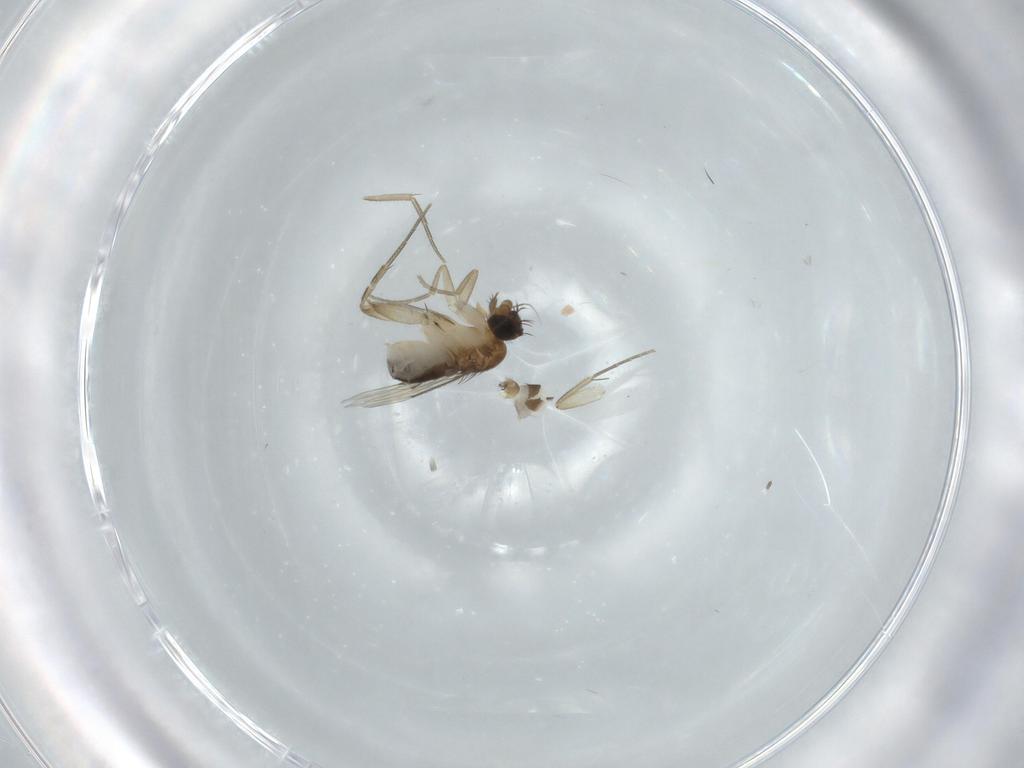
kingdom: Animalia
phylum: Arthropoda
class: Insecta
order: Diptera
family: Phoridae
